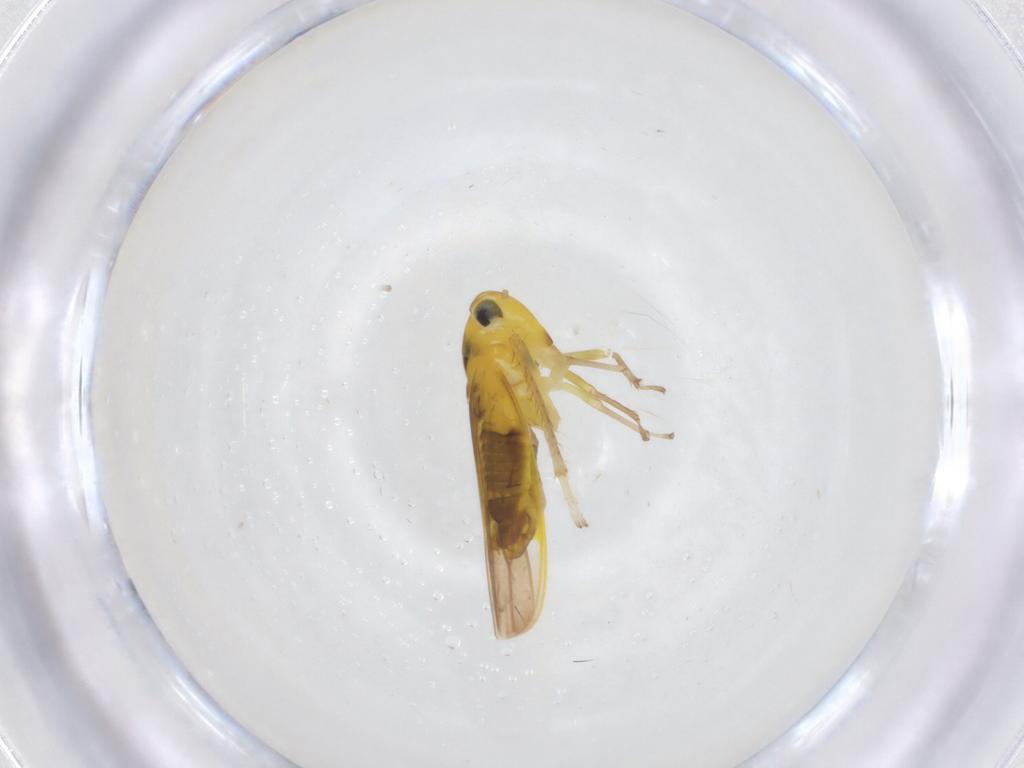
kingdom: Animalia
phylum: Arthropoda
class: Insecta
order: Hemiptera
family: Cicadellidae
